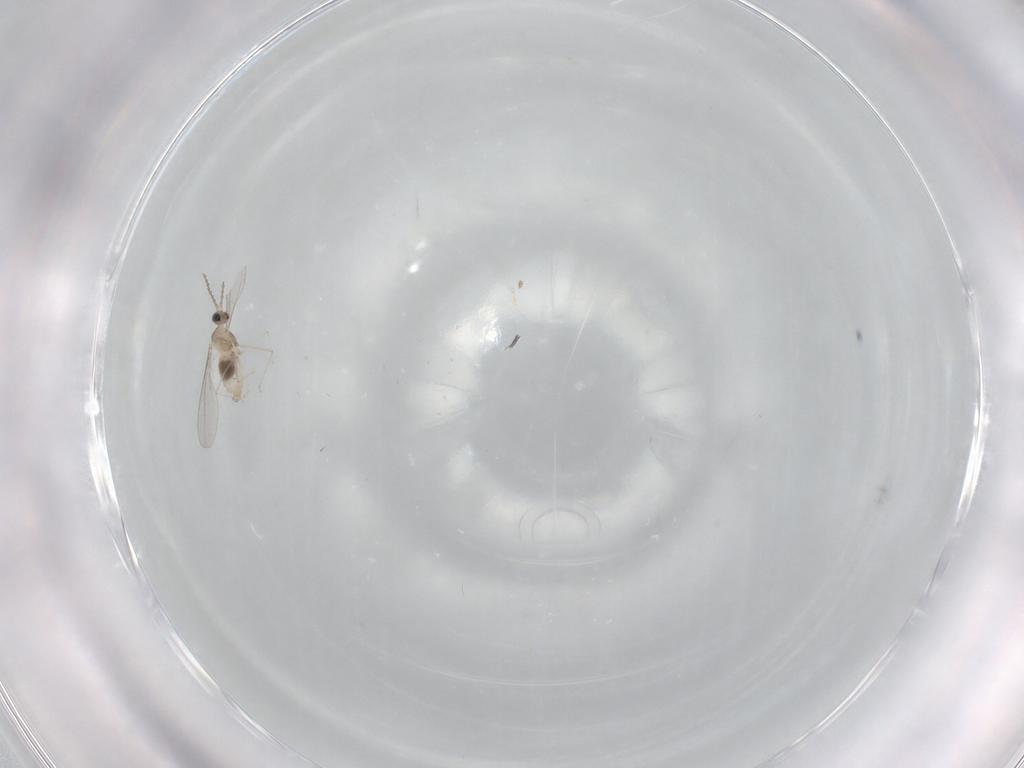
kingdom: Animalia
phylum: Arthropoda
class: Insecta
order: Diptera
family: Cecidomyiidae
